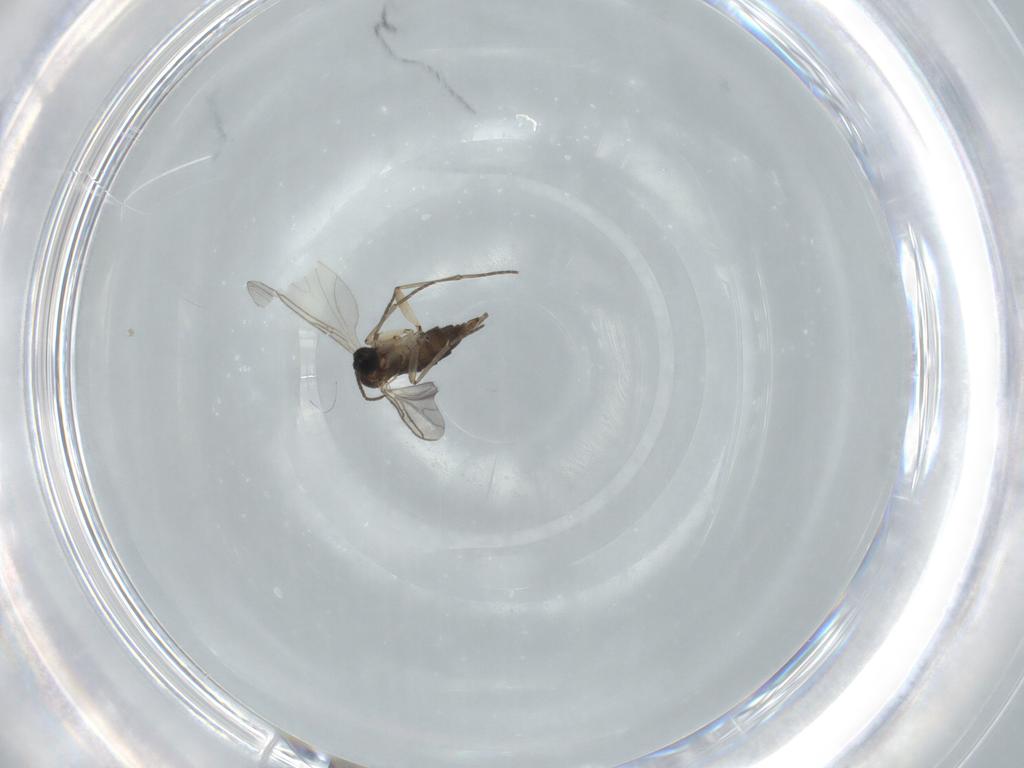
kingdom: Animalia
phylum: Arthropoda
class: Insecta
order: Diptera
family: Sciaridae
